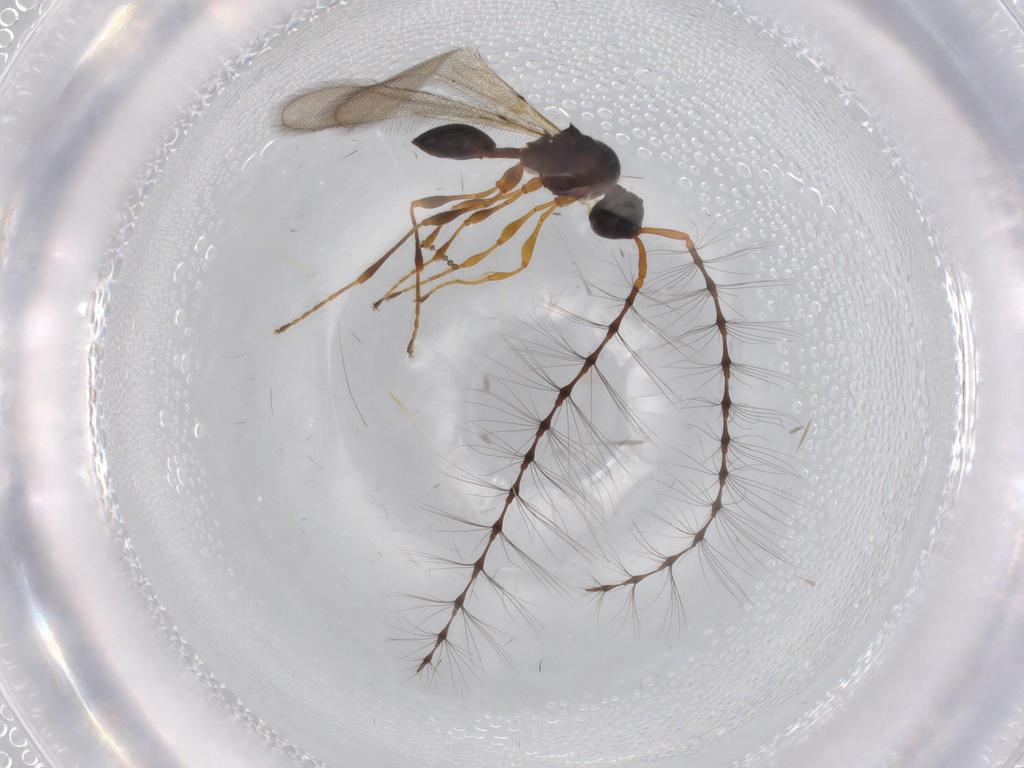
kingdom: Animalia
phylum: Arthropoda
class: Insecta
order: Hymenoptera
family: Diapriidae
